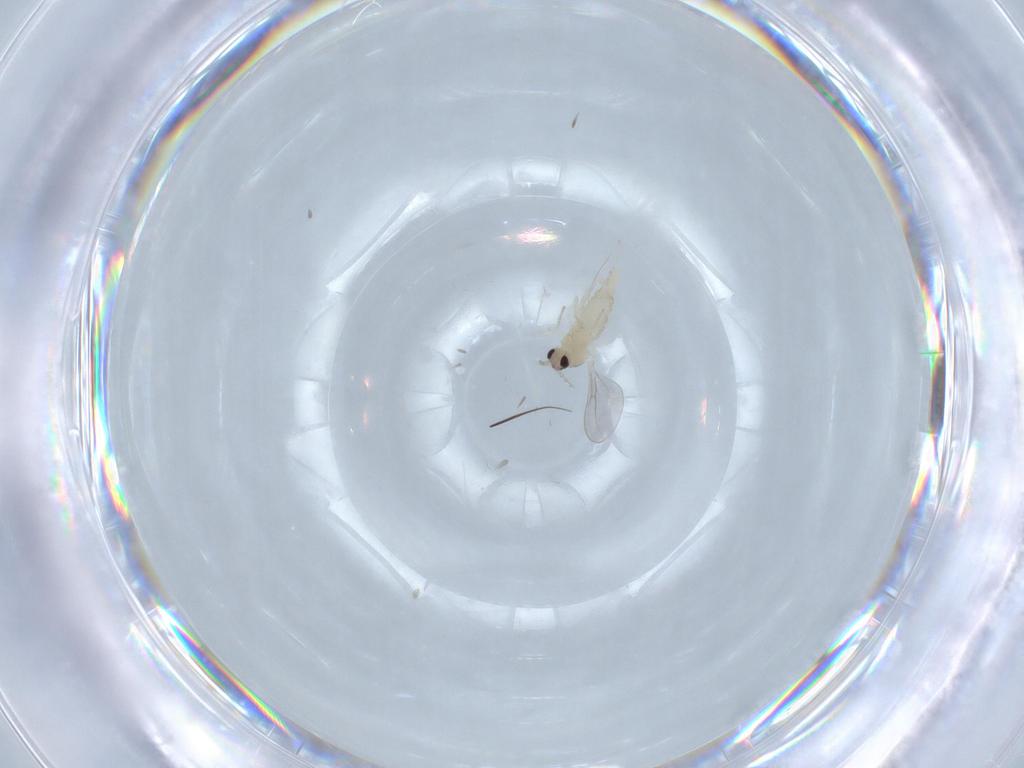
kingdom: Animalia
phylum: Arthropoda
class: Insecta
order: Diptera
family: Cecidomyiidae
